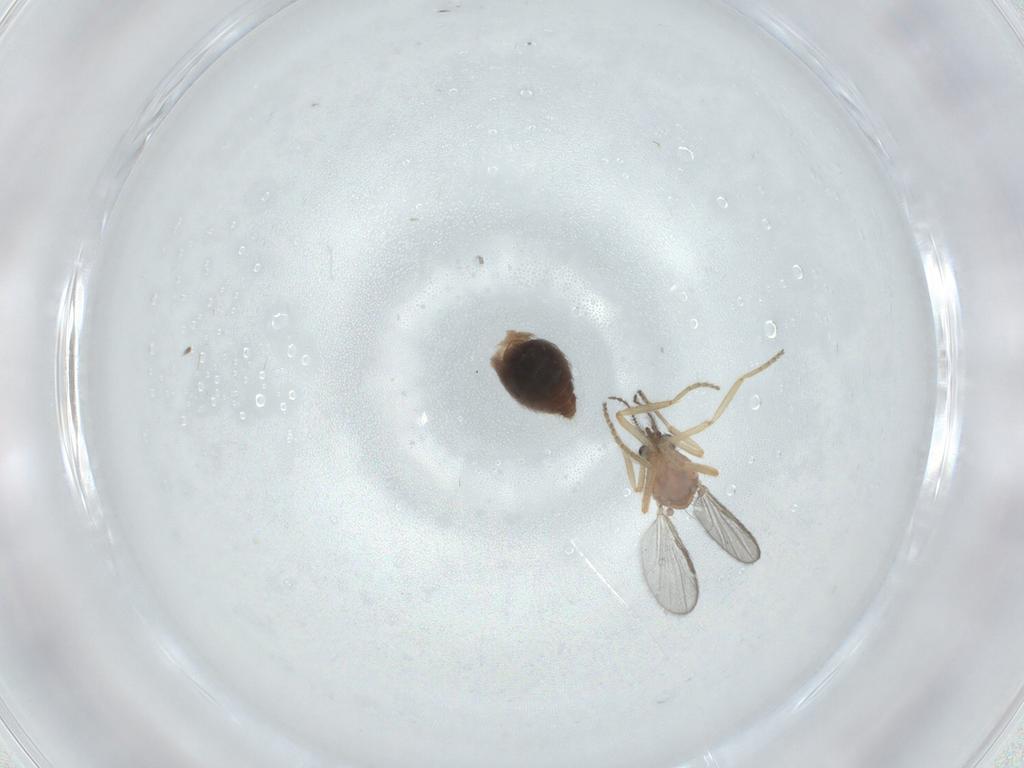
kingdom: Animalia
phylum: Arthropoda
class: Insecta
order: Diptera
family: Ceratopogonidae
